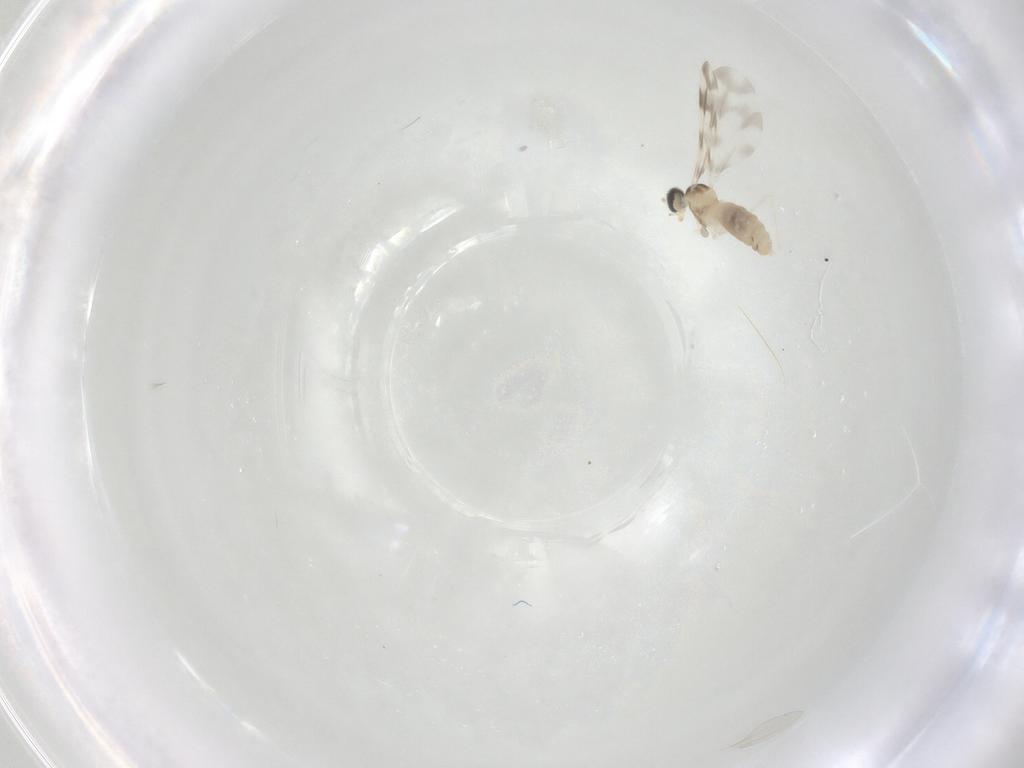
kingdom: Animalia
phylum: Arthropoda
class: Insecta
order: Diptera
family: Cecidomyiidae
